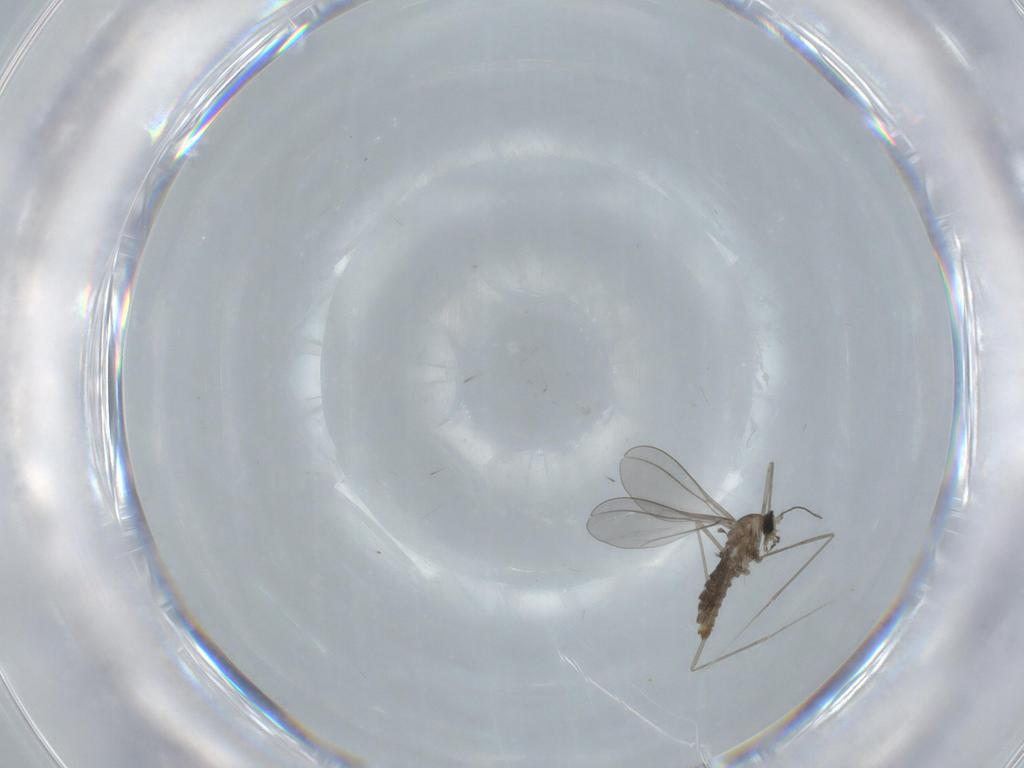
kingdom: Animalia
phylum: Arthropoda
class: Insecta
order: Diptera
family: Cecidomyiidae
